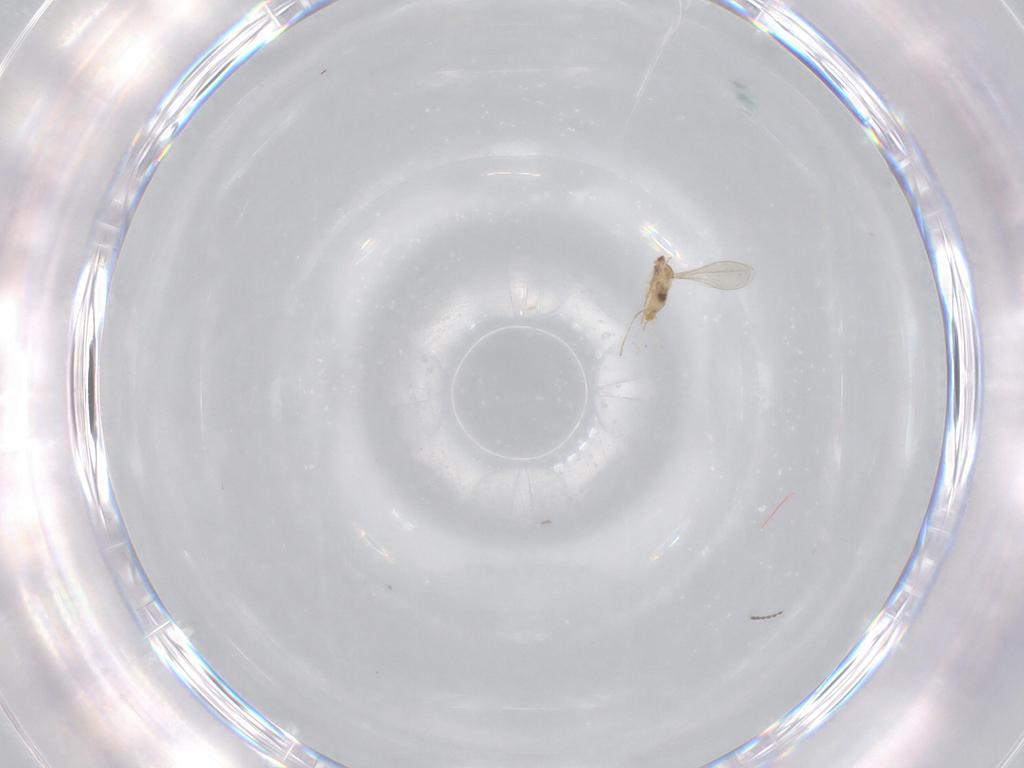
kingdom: Animalia
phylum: Arthropoda
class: Insecta
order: Diptera
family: Cecidomyiidae
